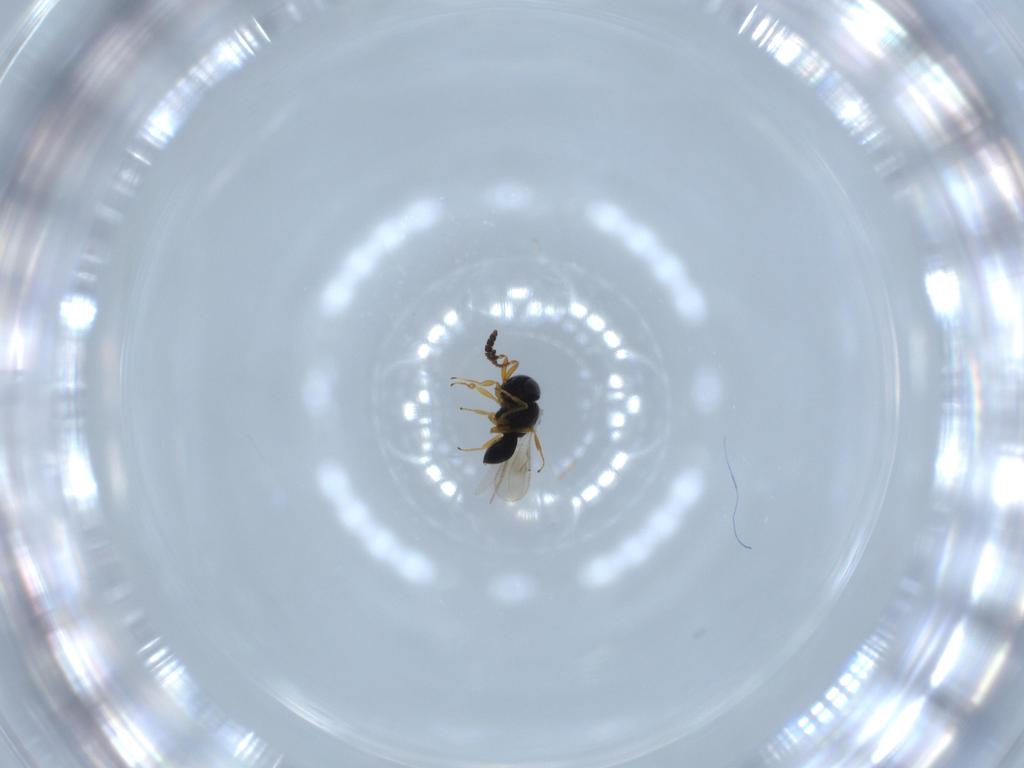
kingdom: Animalia
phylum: Arthropoda
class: Insecta
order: Hymenoptera
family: Scelionidae
